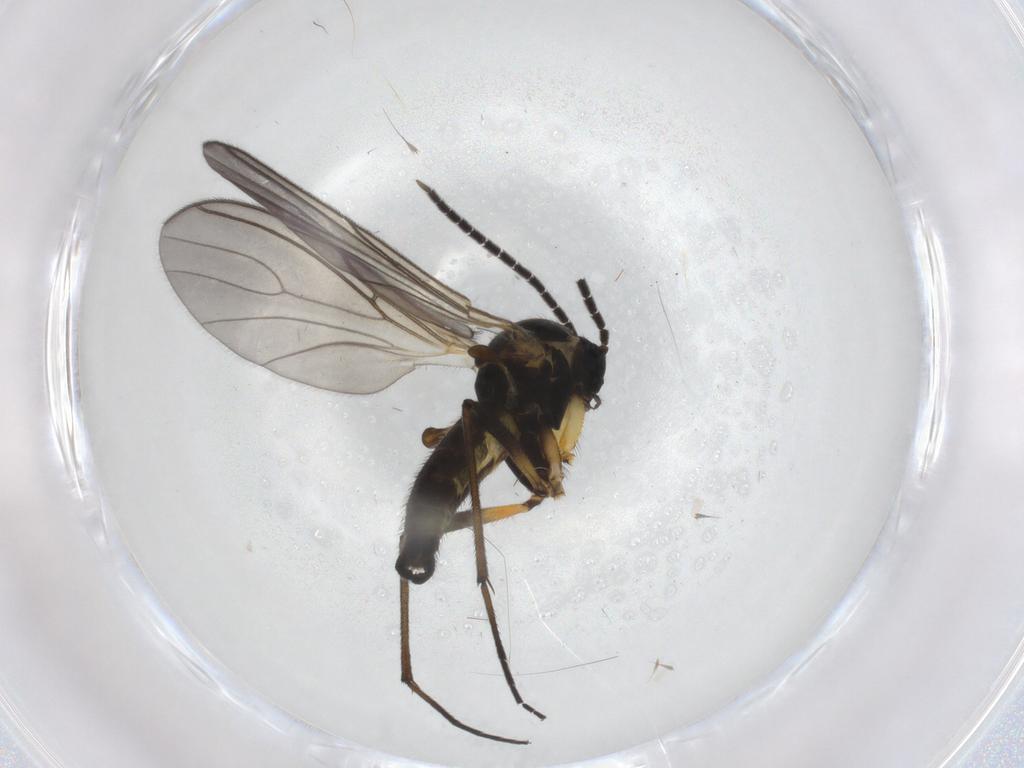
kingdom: Animalia
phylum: Arthropoda
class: Insecta
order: Diptera
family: Sciaridae
